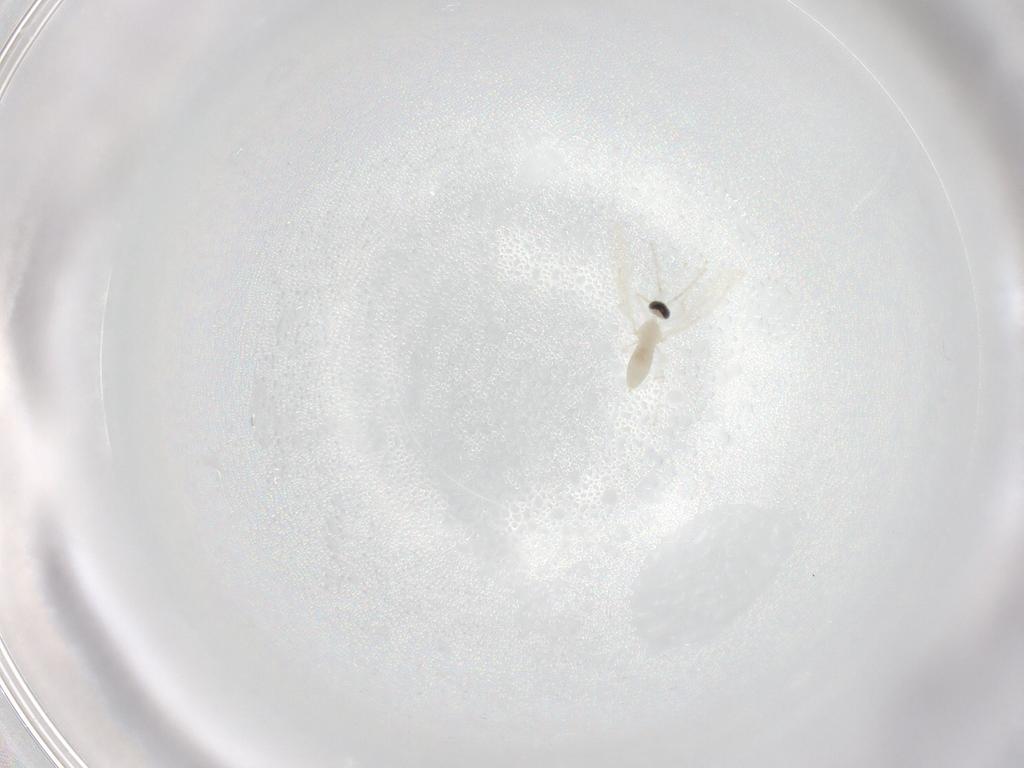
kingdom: Animalia
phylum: Arthropoda
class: Insecta
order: Diptera
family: Cecidomyiidae
